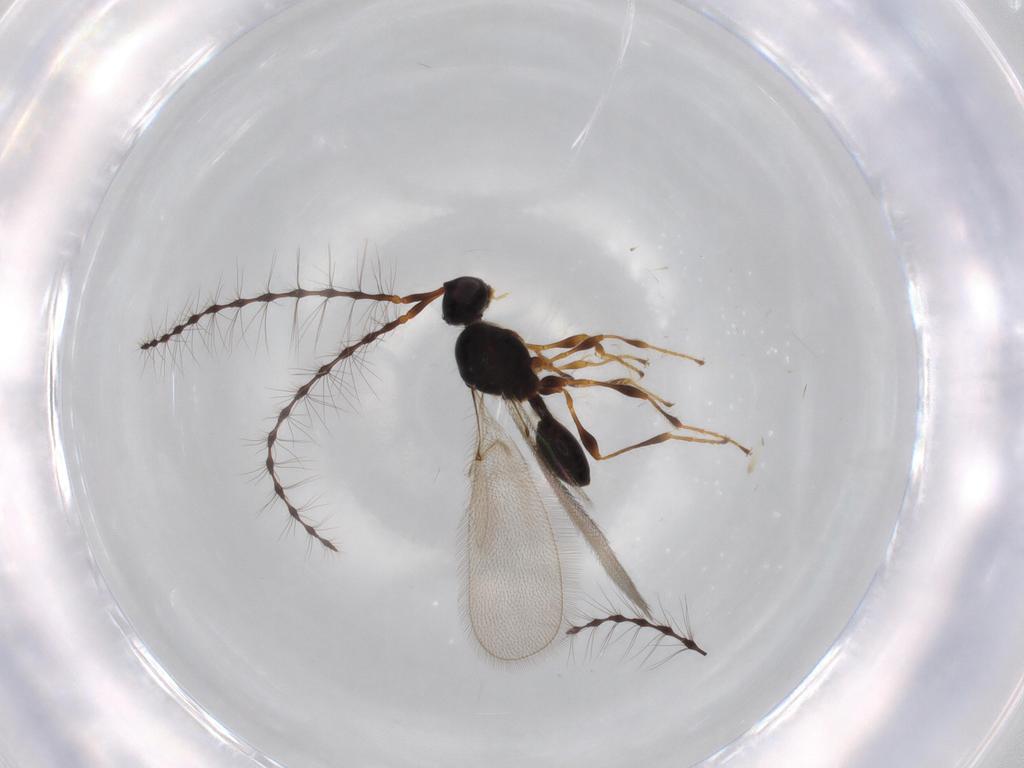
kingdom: Animalia
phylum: Arthropoda
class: Insecta
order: Hymenoptera
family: Diapriidae
